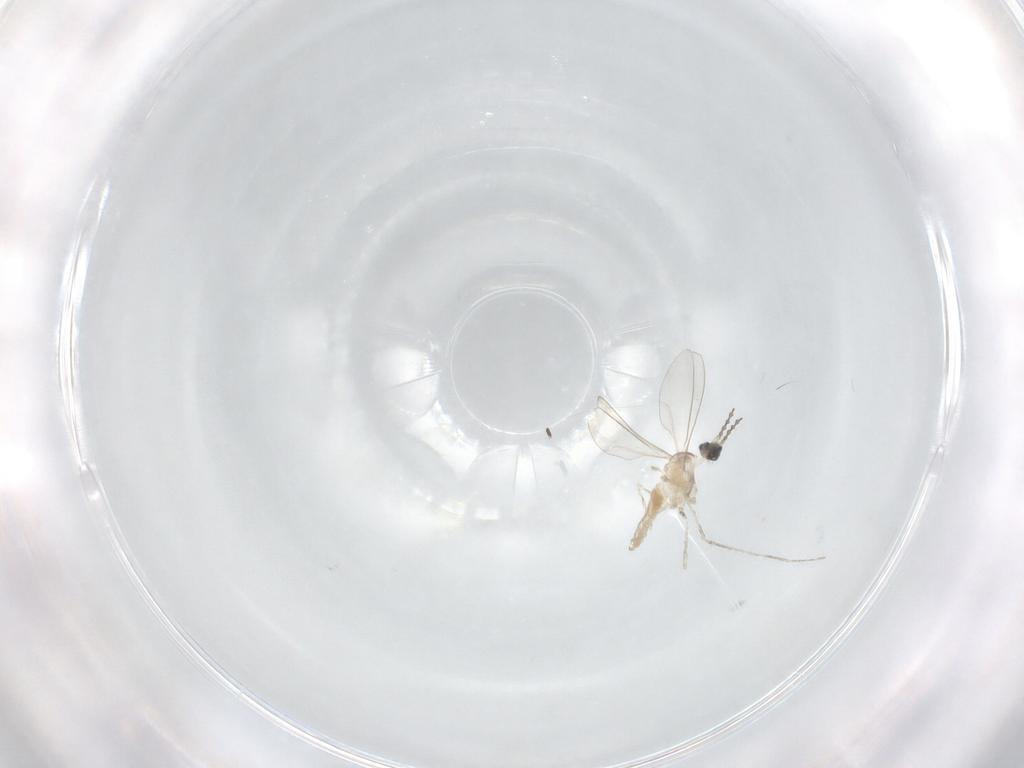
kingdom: Animalia
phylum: Arthropoda
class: Insecta
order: Diptera
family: Cecidomyiidae
